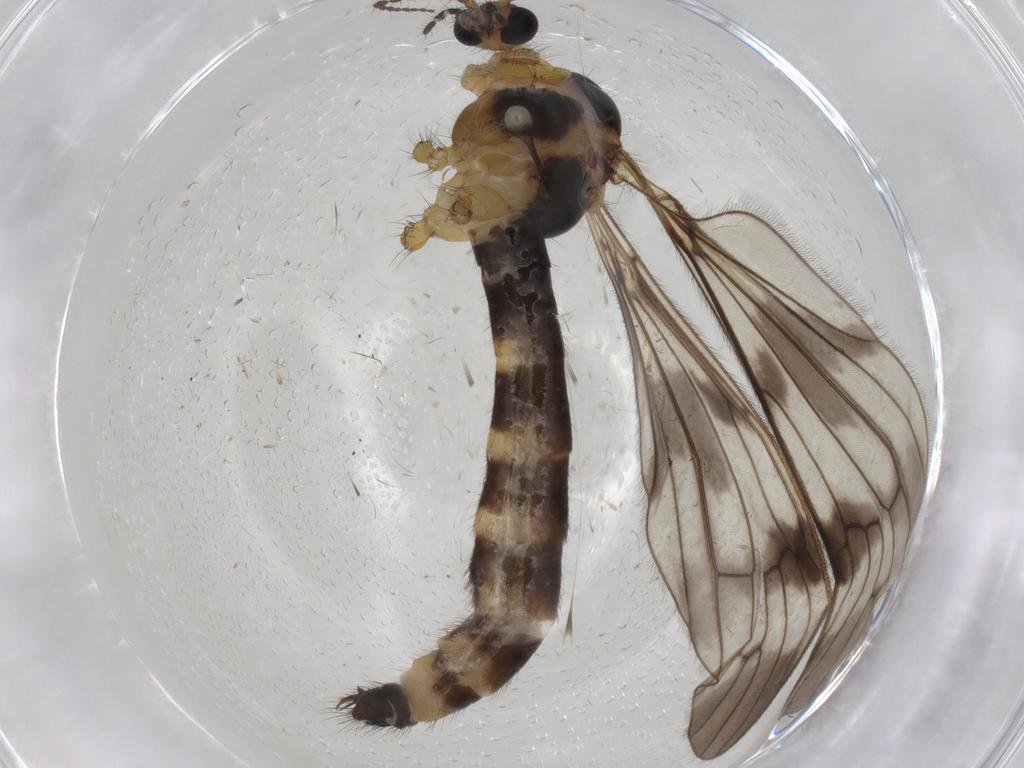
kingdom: Animalia
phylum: Arthropoda
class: Insecta
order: Diptera
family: Limoniidae
